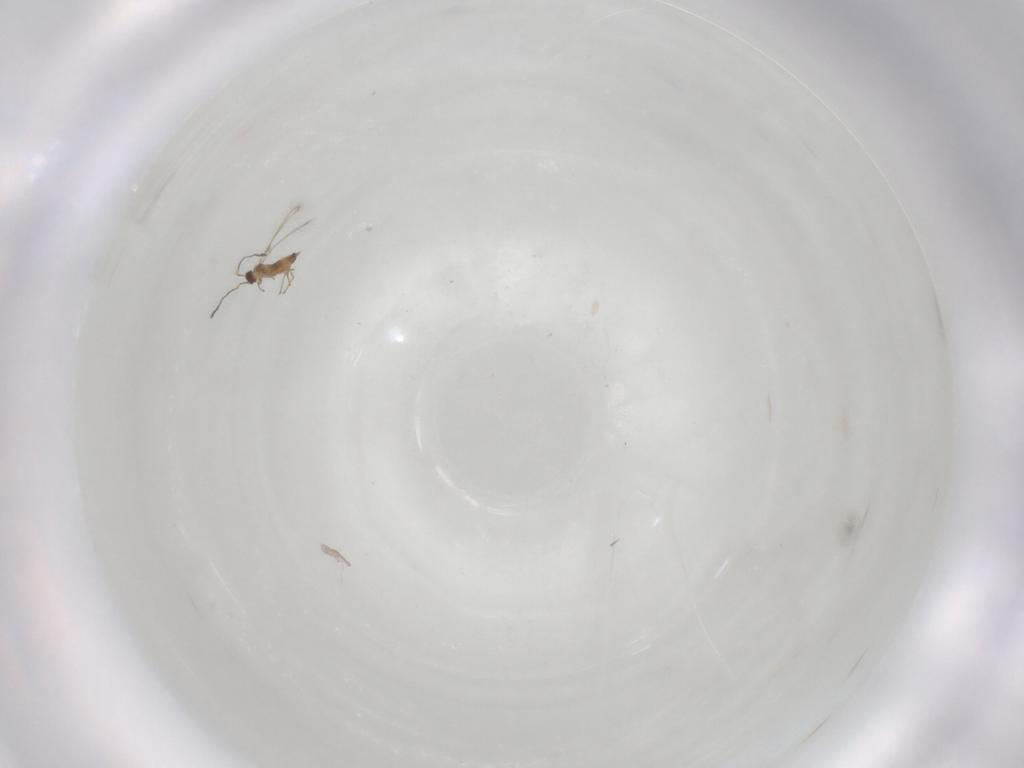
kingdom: Animalia
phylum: Arthropoda
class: Insecta
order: Hymenoptera
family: Mymaridae
